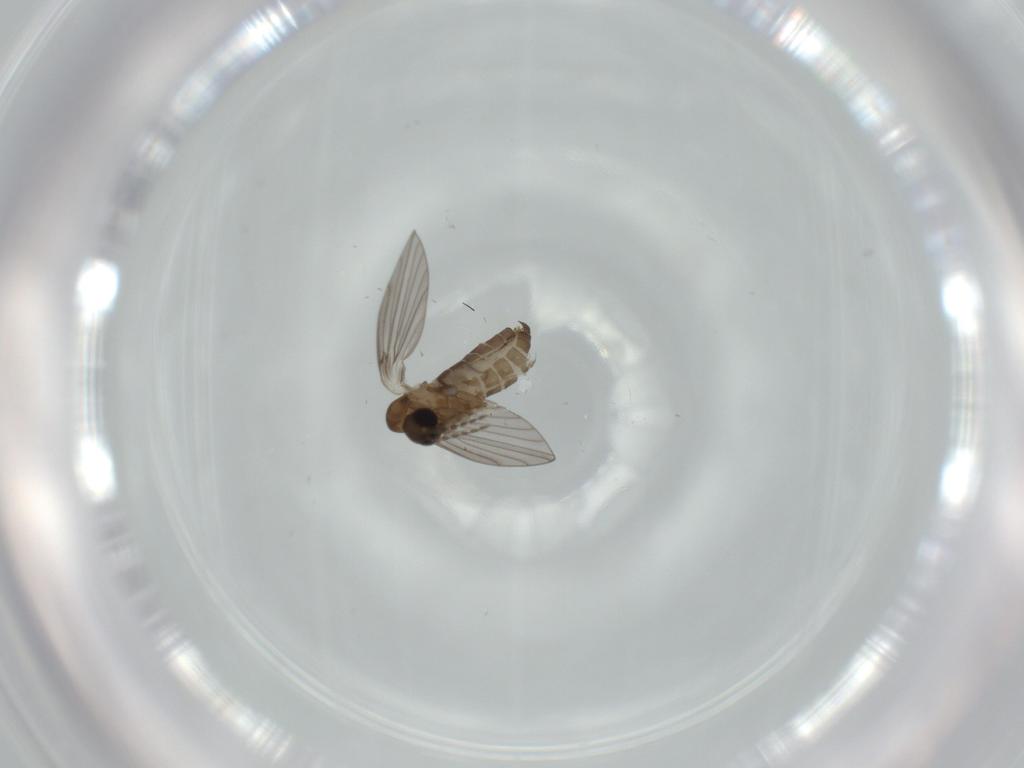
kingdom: Animalia
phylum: Arthropoda
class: Insecta
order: Diptera
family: Psychodidae
